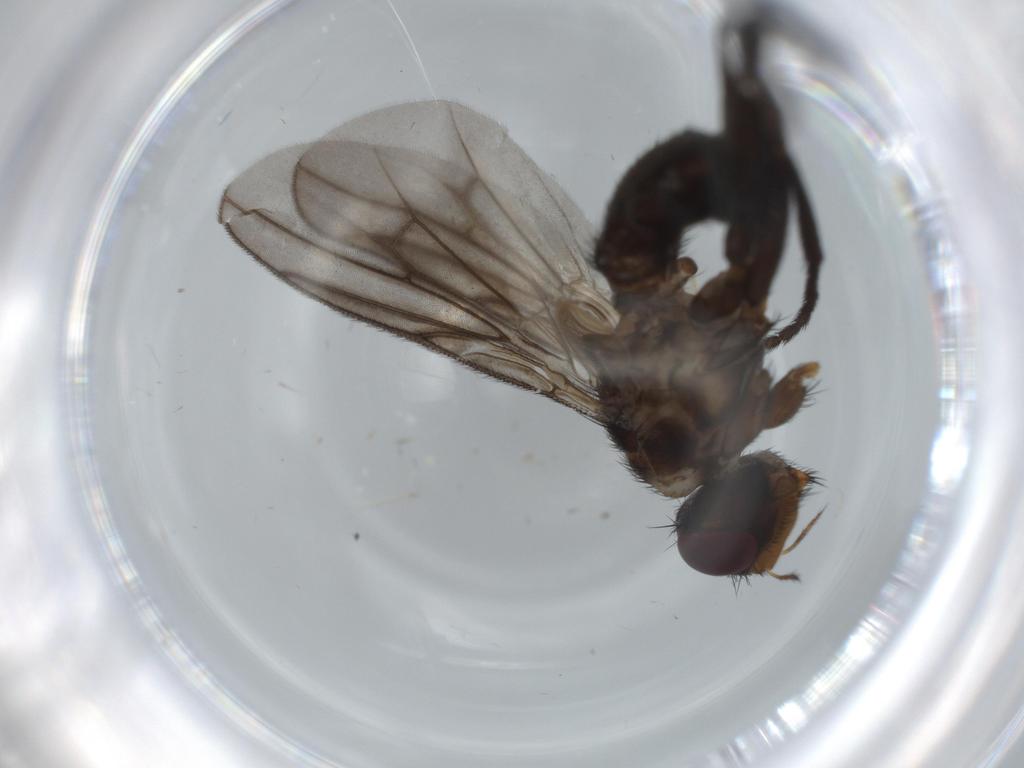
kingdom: Animalia
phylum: Arthropoda
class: Insecta
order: Diptera
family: Calliphoridae
